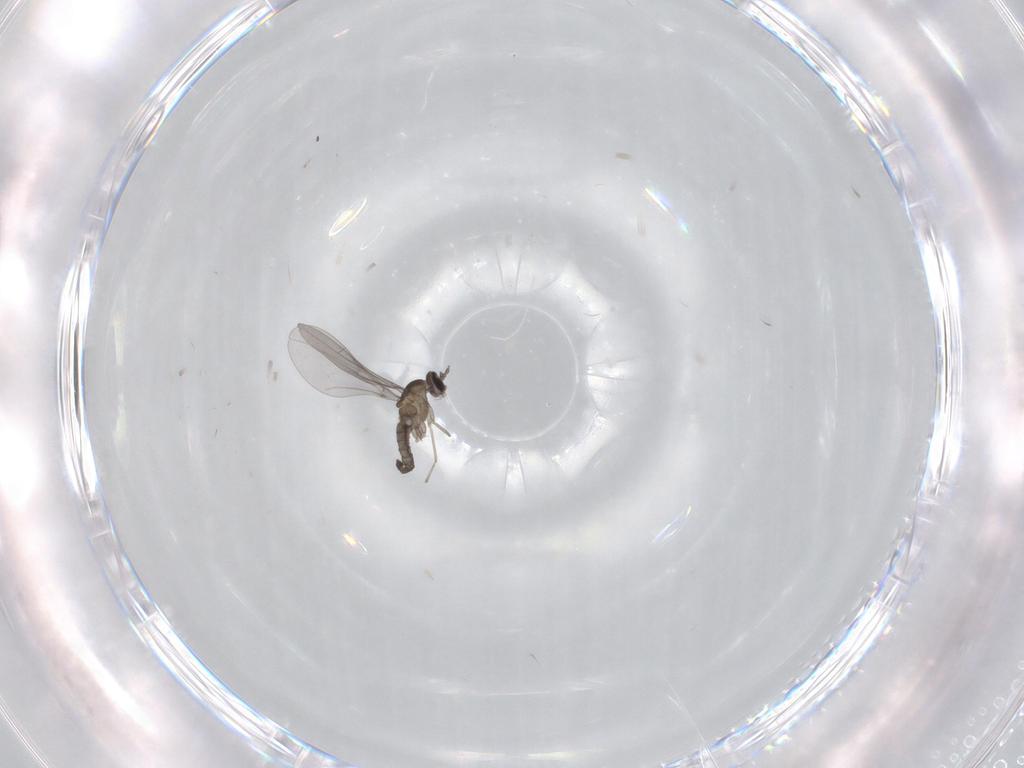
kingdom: Animalia
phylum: Arthropoda
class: Insecta
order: Diptera
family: Cecidomyiidae
